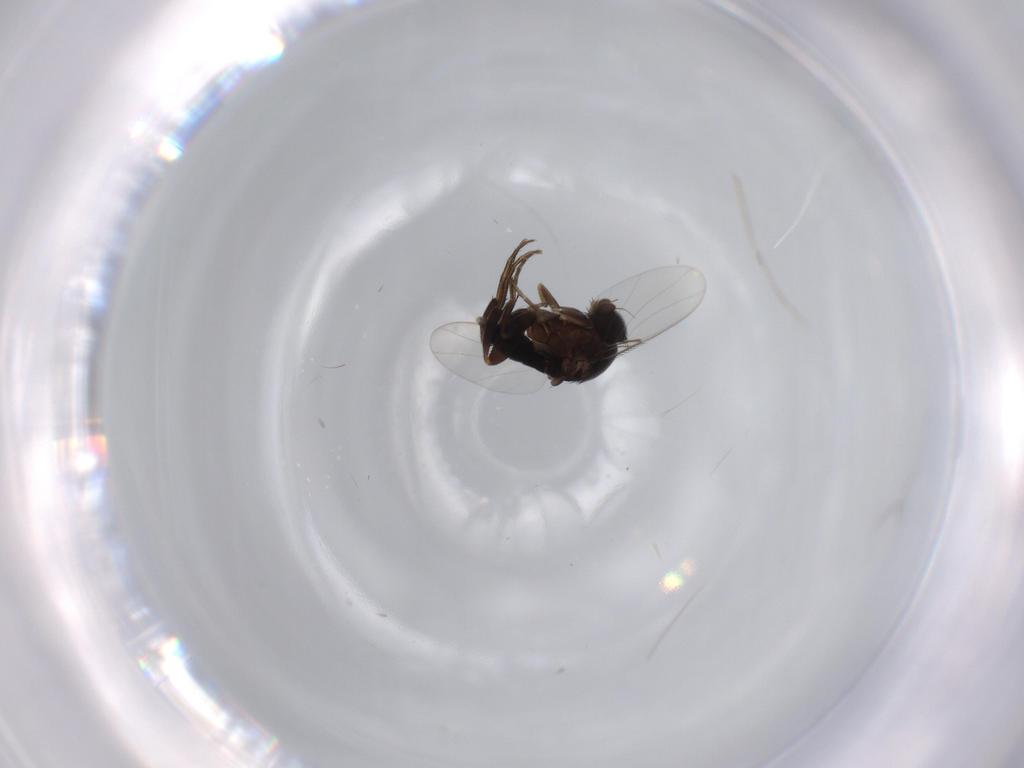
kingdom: Animalia
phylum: Arthropoda
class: Insecta
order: Diptera
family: Phoridae
